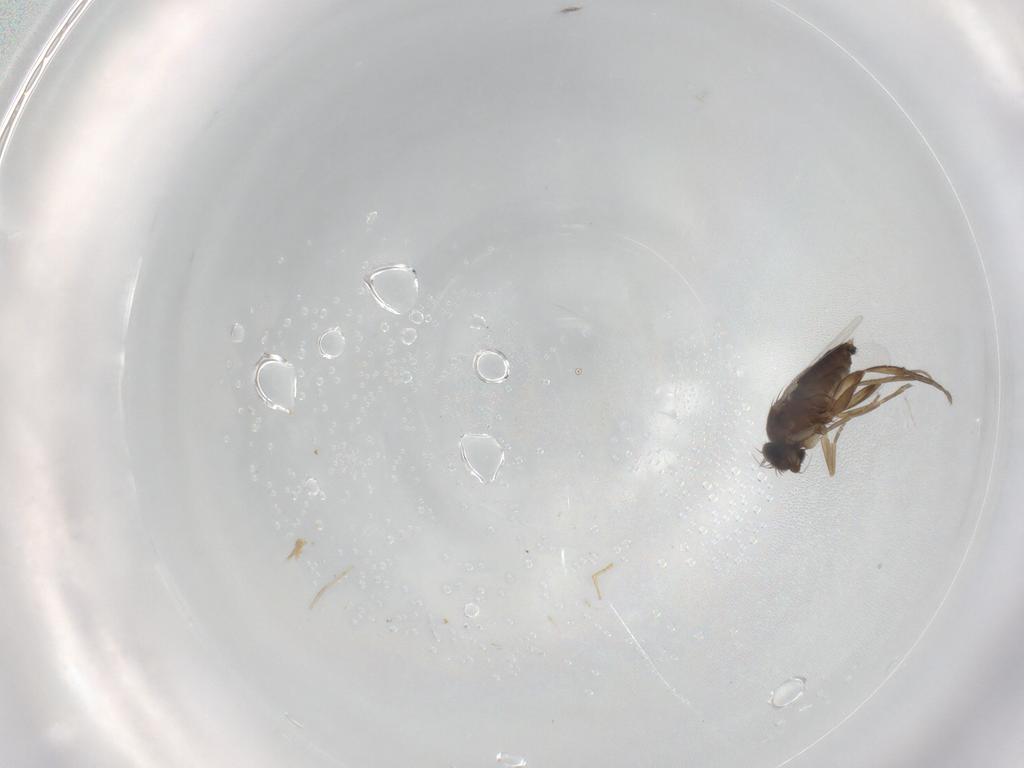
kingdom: Animalia
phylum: Arthropoda
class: Insecta
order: Diptera
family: Phoridae
